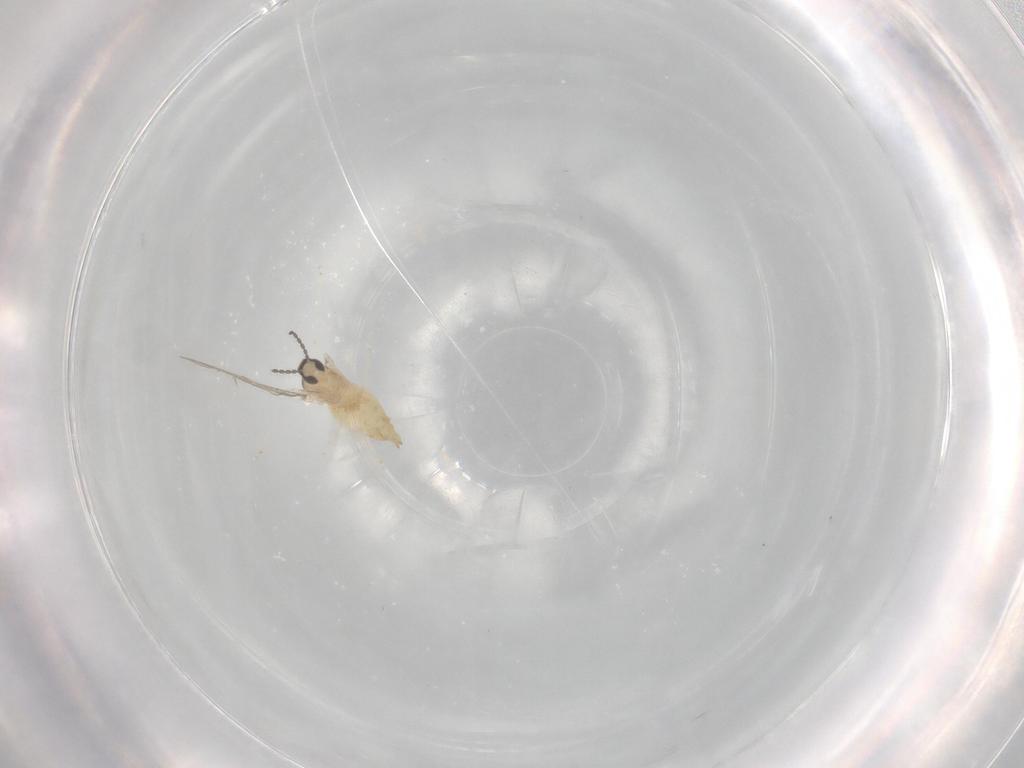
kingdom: Animalia
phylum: Arthropoda
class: Insecta
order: Diptera
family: Cecidomyiidae
